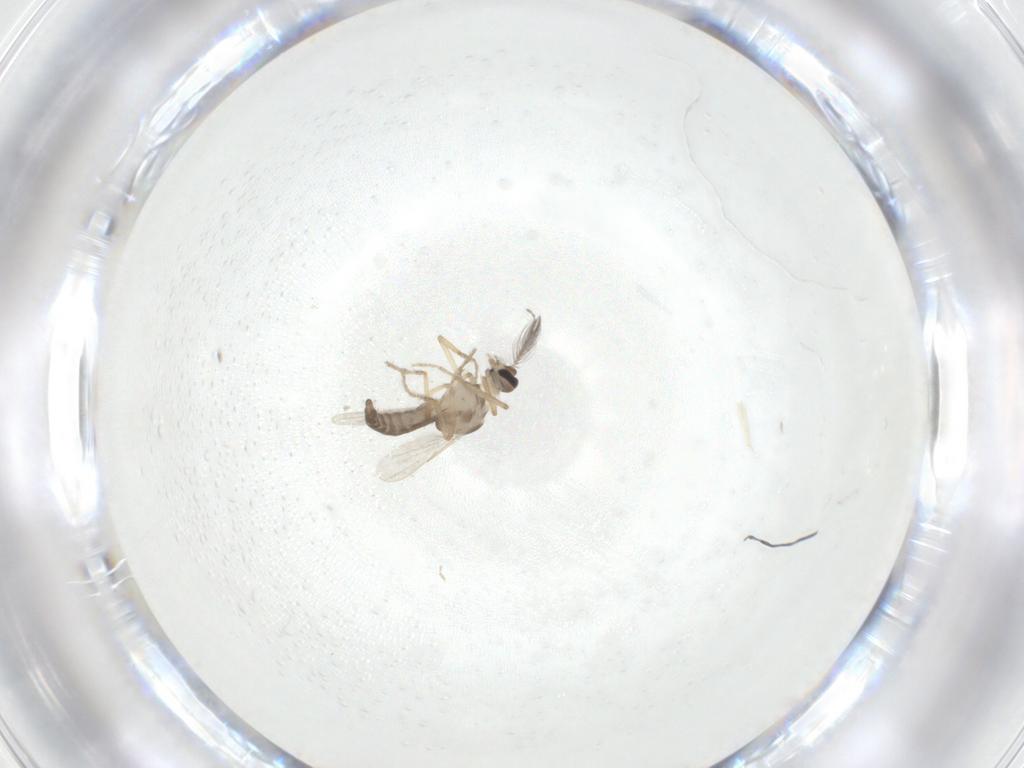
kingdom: Animalia
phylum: Arthropoda
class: Insecta
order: Diptera
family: Ceratopogonidae
